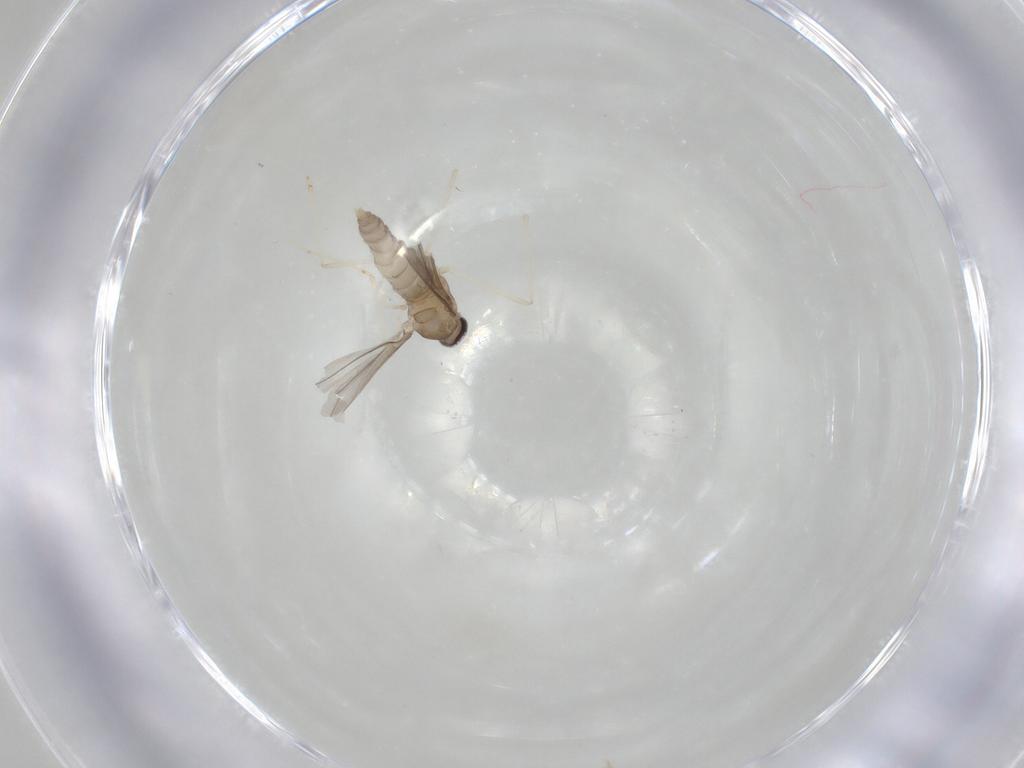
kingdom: Animalia
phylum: Arthropoda
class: Insecta
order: Diptera
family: Cecidomyiidae
